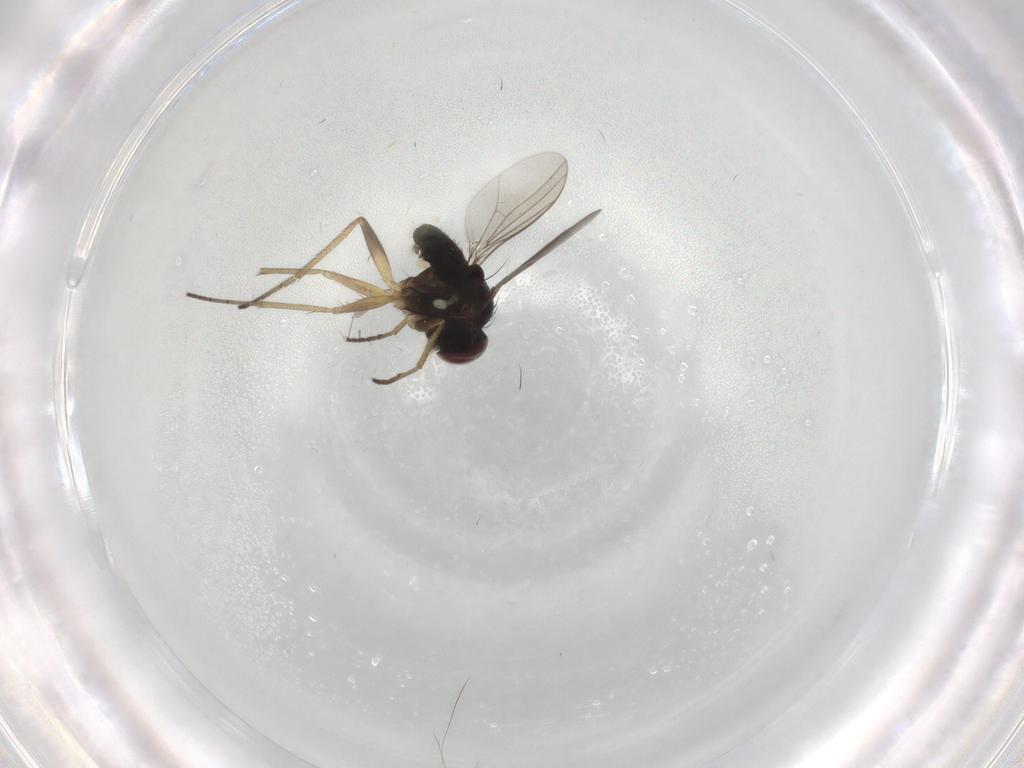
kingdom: Animalia
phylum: Arthropoda
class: Insecta
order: Diptera
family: Dolichopodidae
